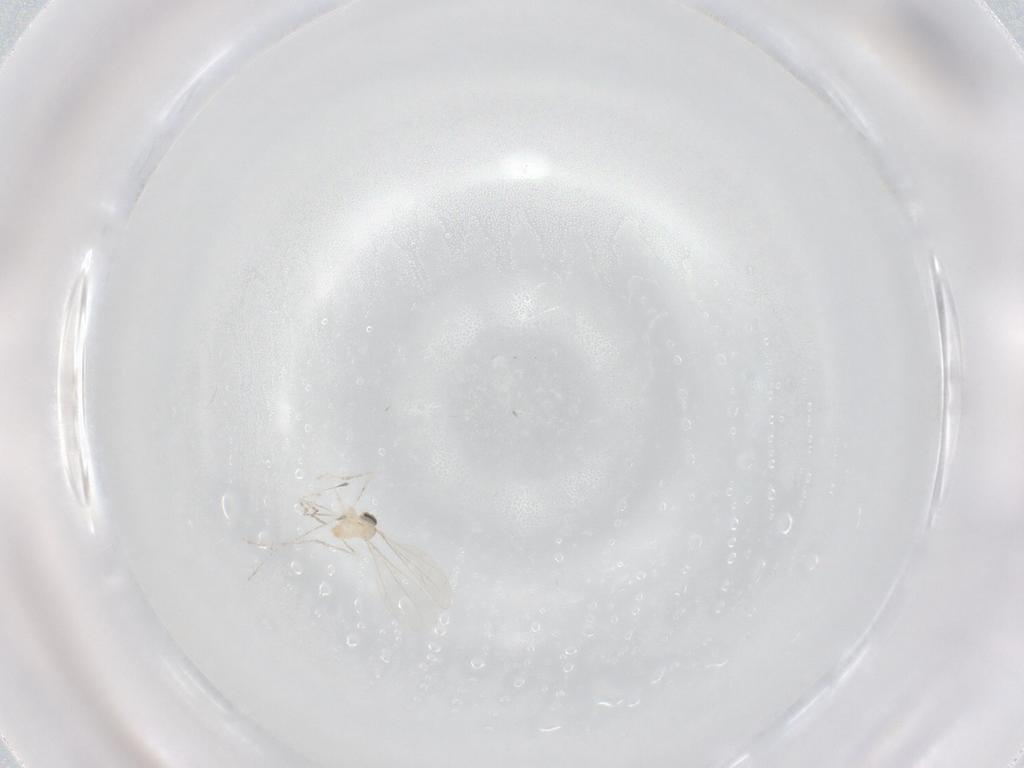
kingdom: Animalia
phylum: Arthropoda
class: Insecta
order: Diptera
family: Cecidomyiidae
